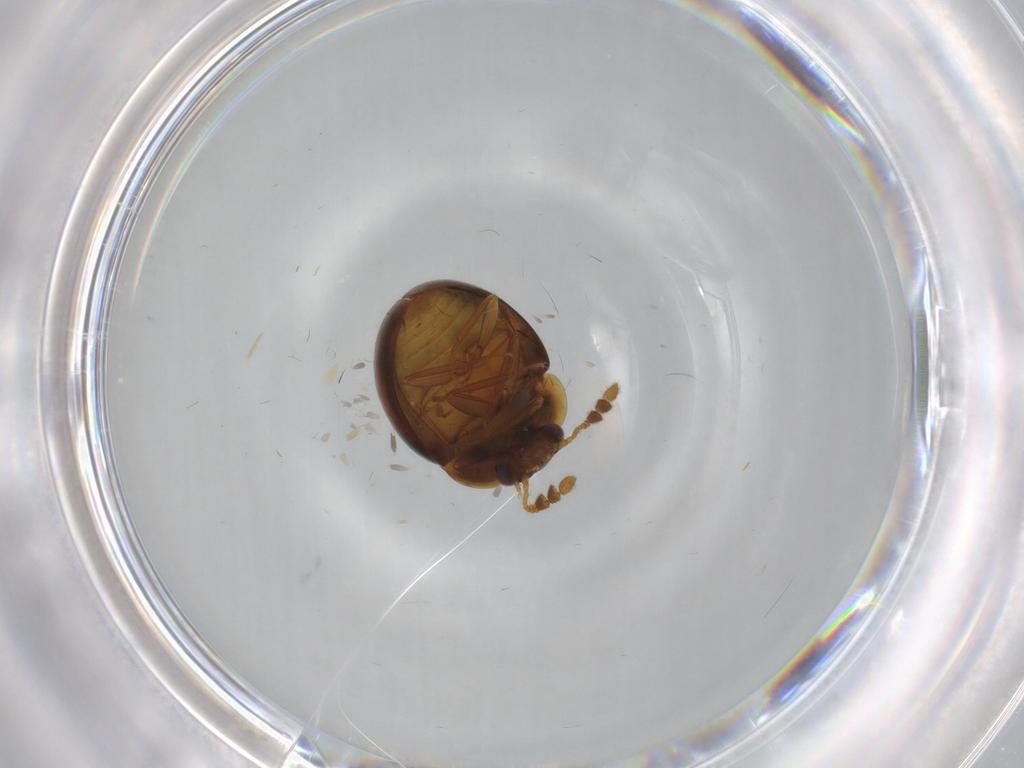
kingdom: Animalia
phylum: Arthropoda
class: Insecta
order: Coleoptera
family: Leiodidae
